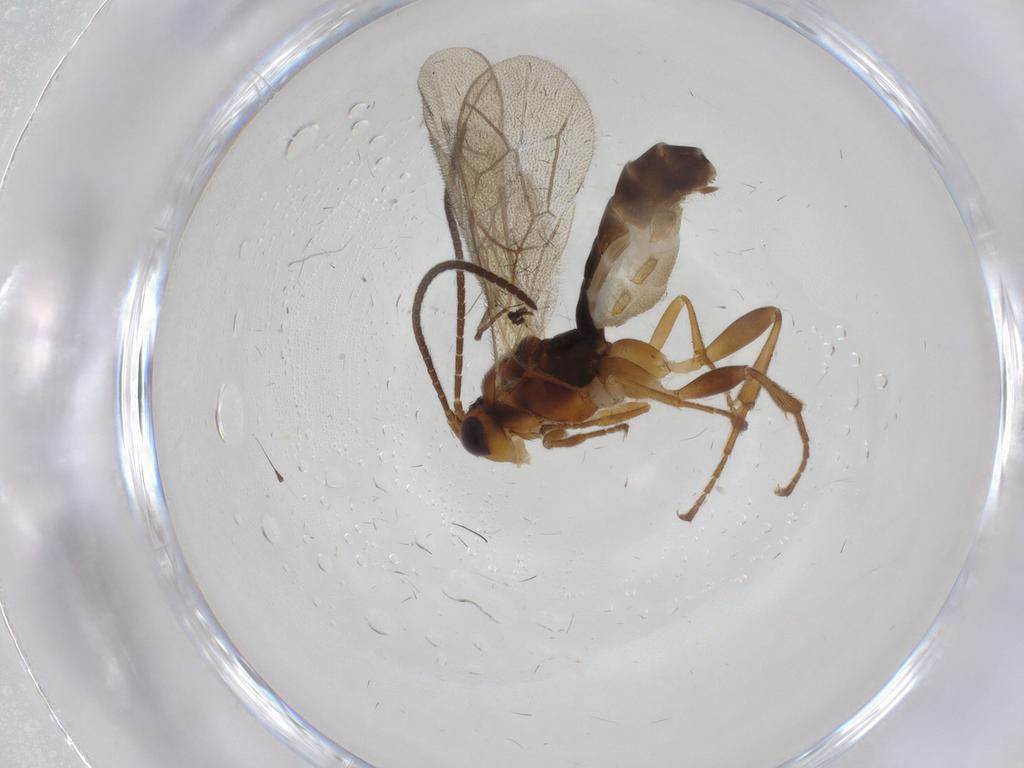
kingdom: Animalia
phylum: Arthropoda
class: Insecta
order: Hymenoptera
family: Ichneumonidae
